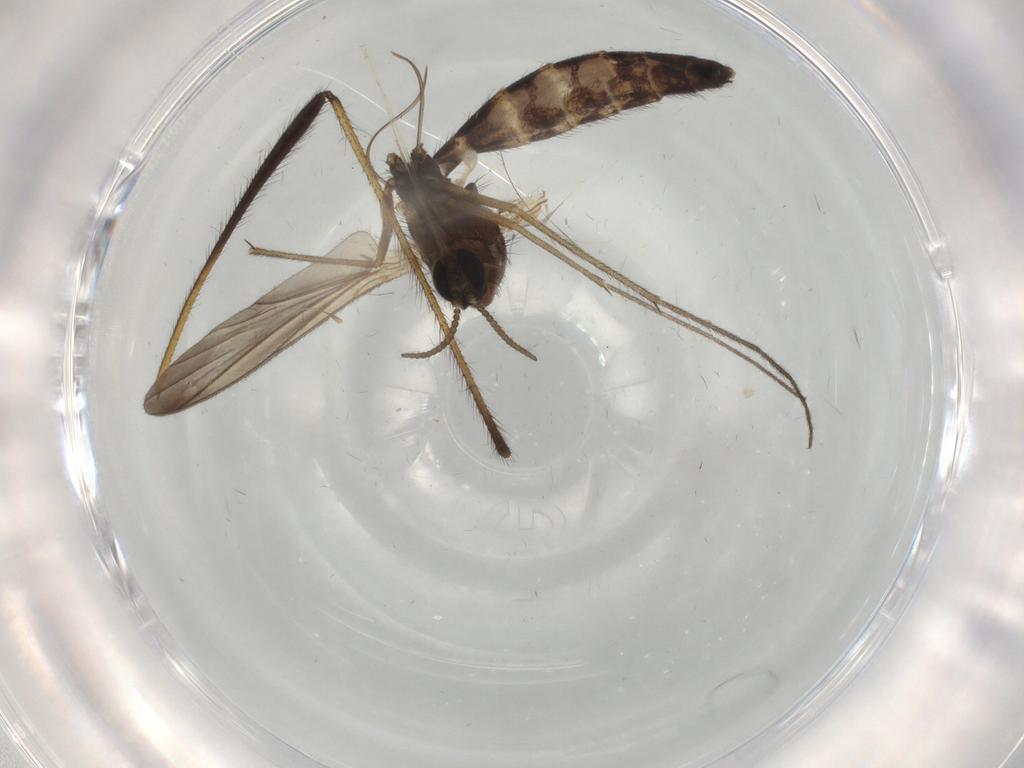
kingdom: Animalia
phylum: Arthropoda
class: Insecta
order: Diptera
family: Keroplatidae
